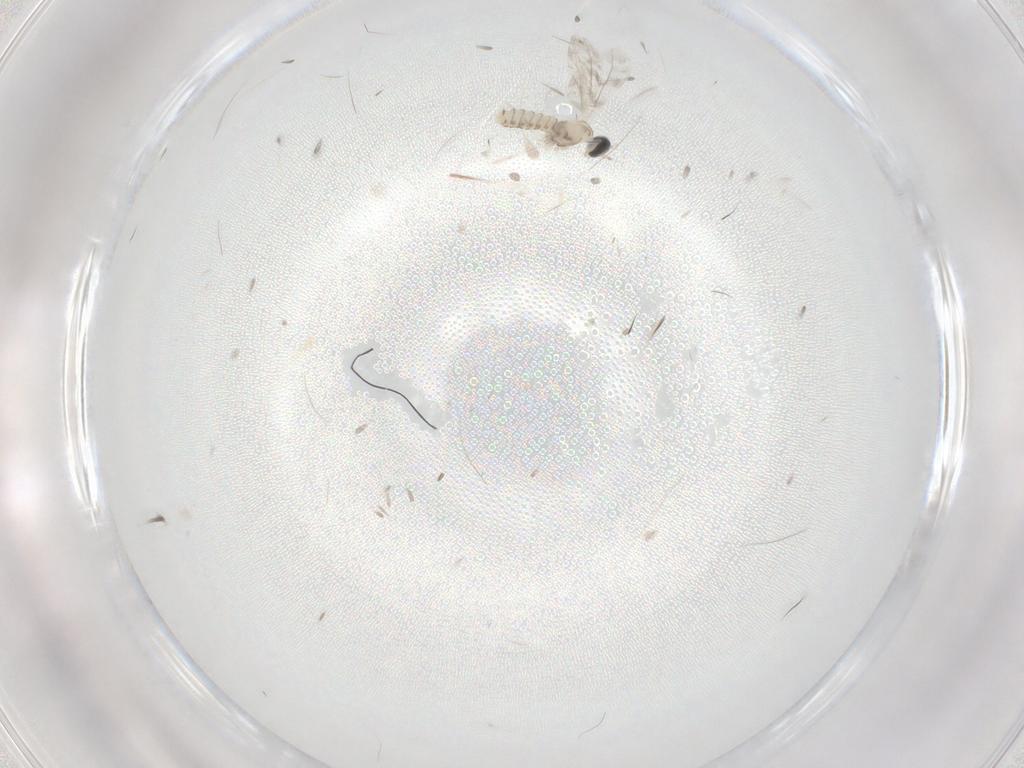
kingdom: Animalia
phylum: Arthropoda
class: Insecta
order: Diptera
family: Cecidomyiidae
